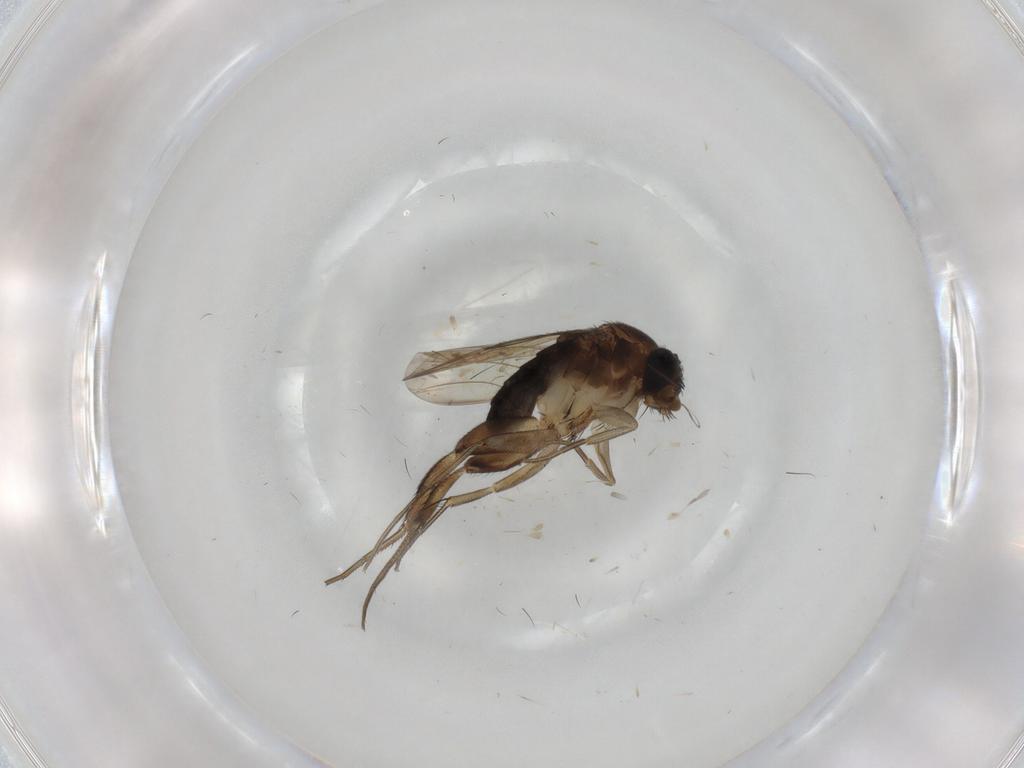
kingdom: Animalia
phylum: Arthropoda
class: Insecta
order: Diptera
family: Phoridae
